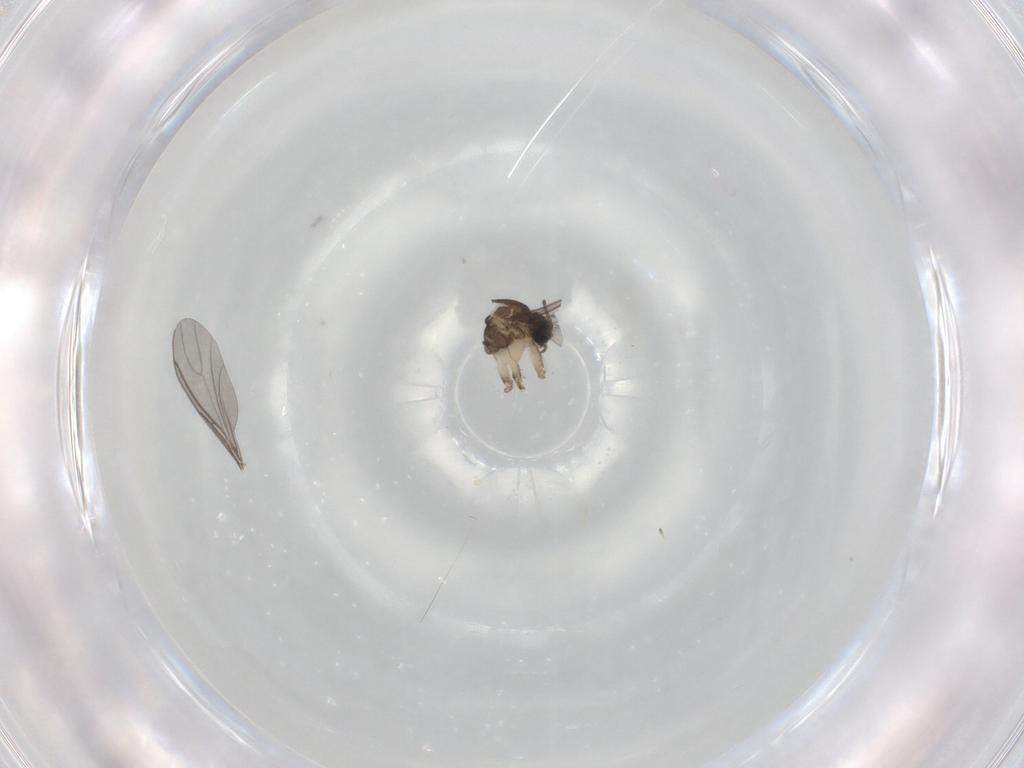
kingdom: Animalia
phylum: Arthropoda
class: Insecta
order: Diptera
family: Sciaridae
